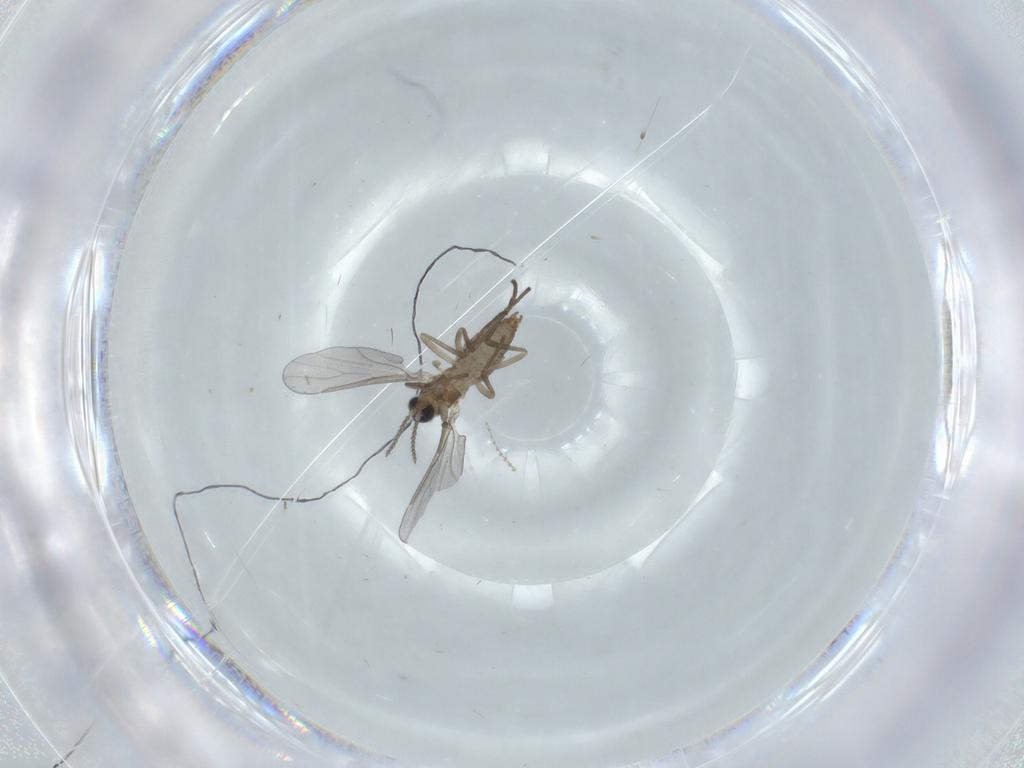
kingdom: Animalia
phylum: Arthropoda
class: Insecta
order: Diptera
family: Cecidomyiidae
